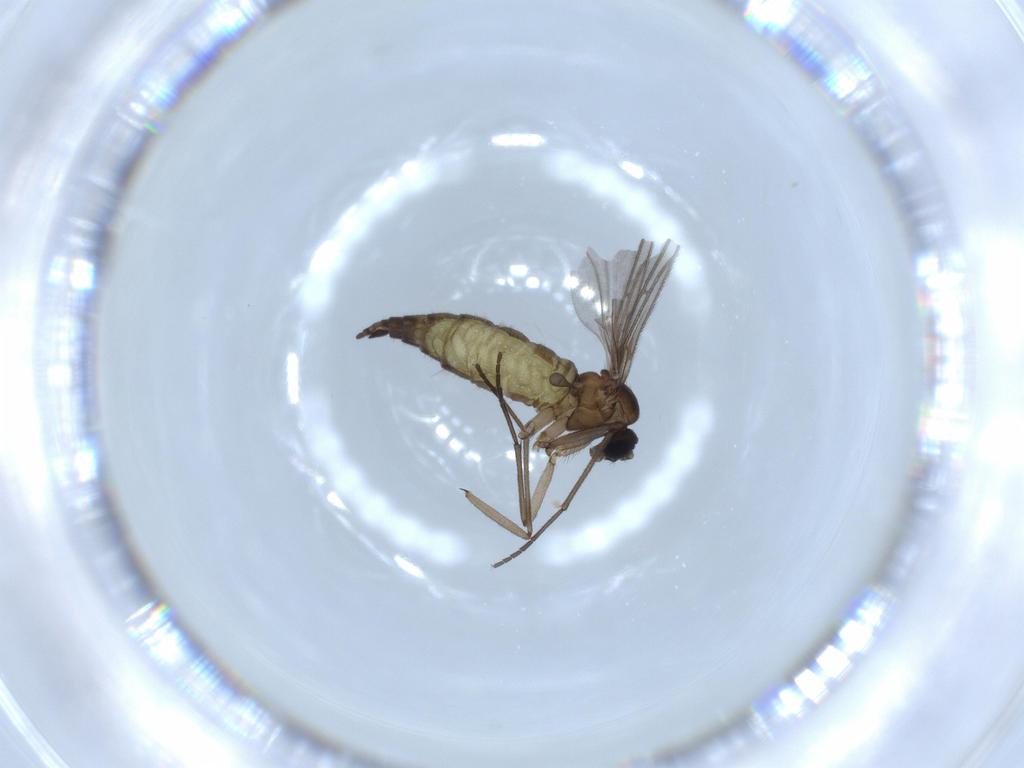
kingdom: Animalia
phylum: Arthropoda
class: Insecta
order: Diptera
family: Sciaridae
